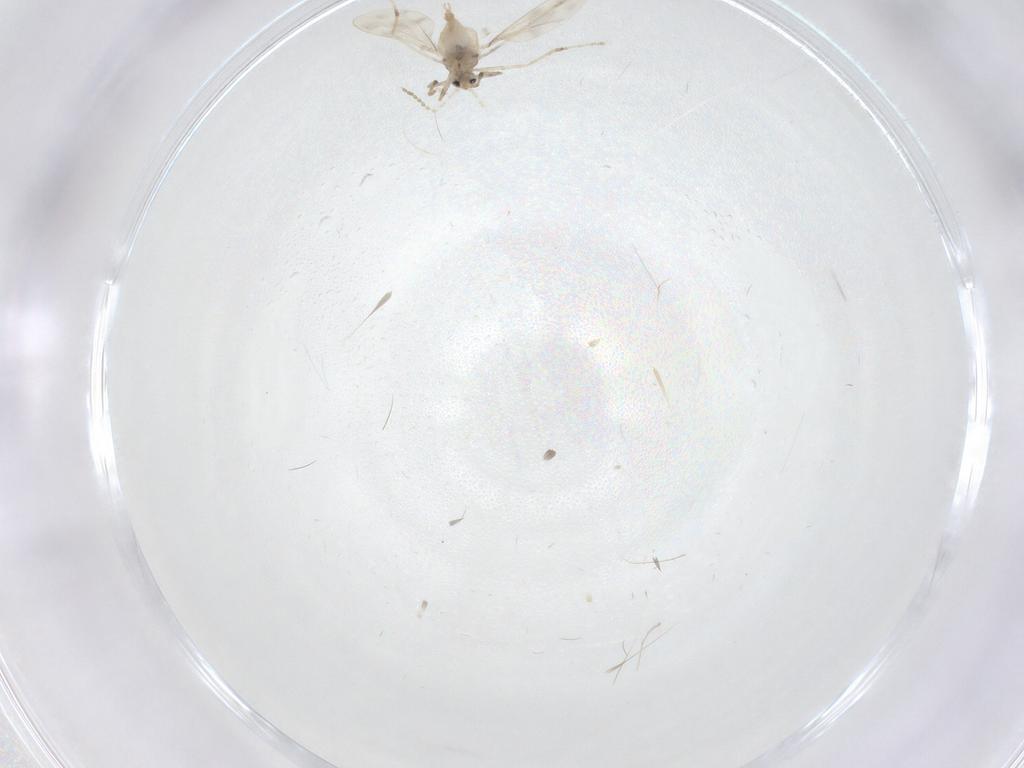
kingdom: Animalia
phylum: Arthropoda
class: Insecta
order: Diptera
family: Cecidomyiidae
